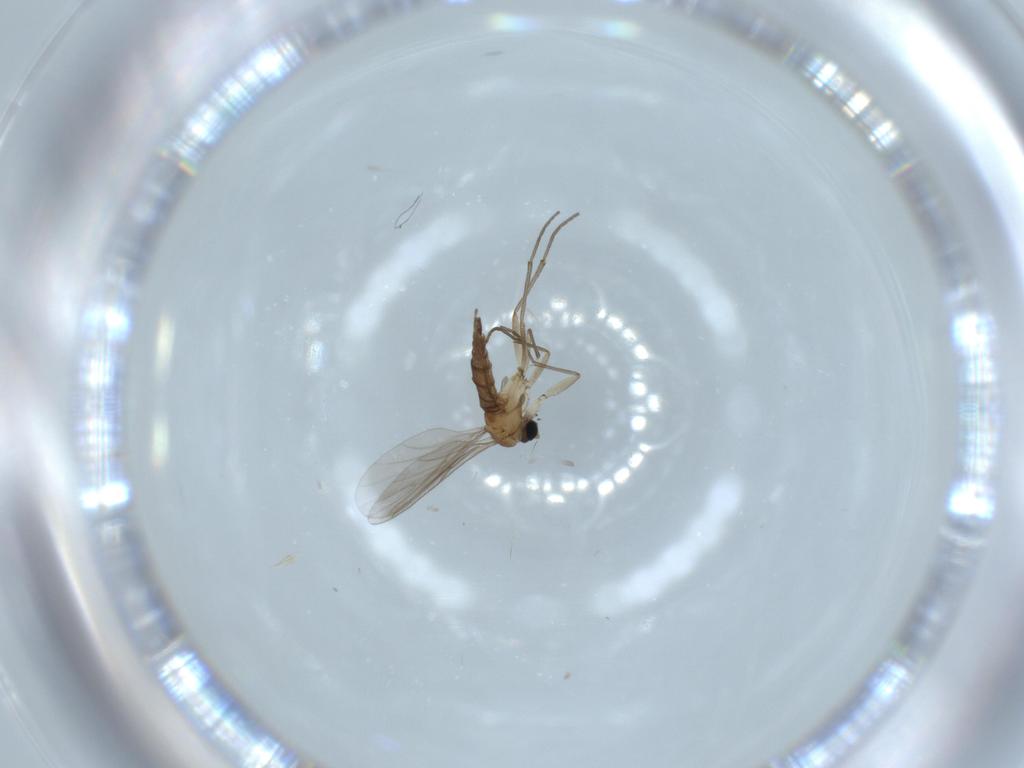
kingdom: Animalia
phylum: Arthropoda
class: Insecta
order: Diptera
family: Sciaridae
